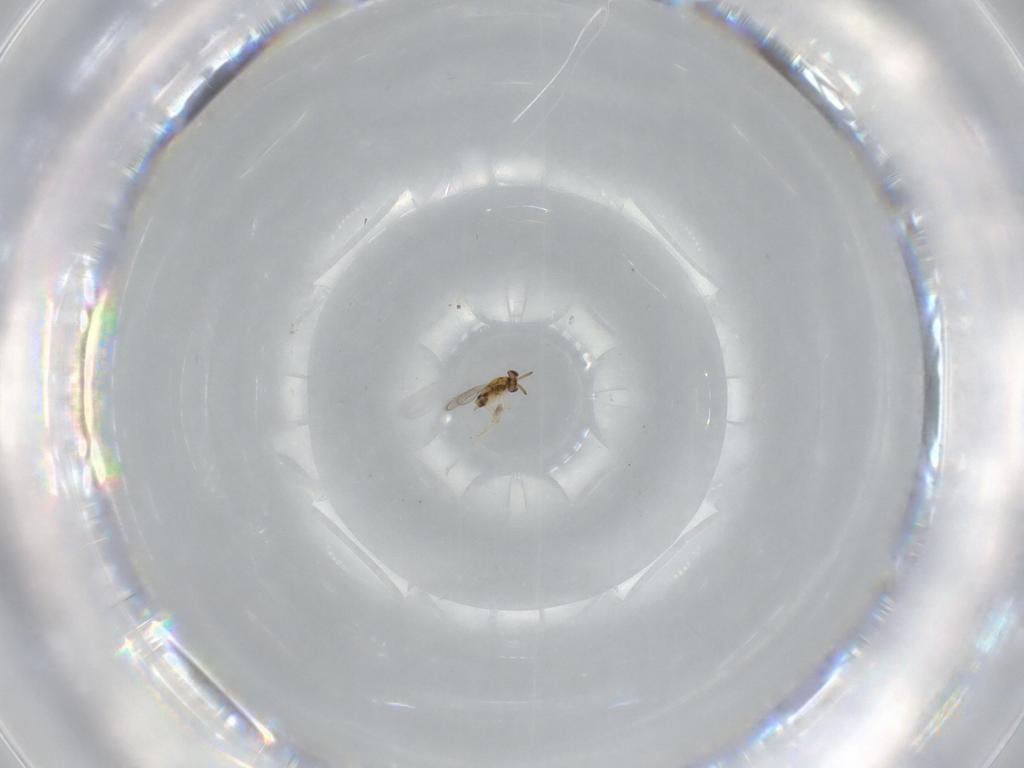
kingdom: Animalia
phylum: Arthropoda
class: Insecta
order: Hymenoptera
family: Aphelinidae
